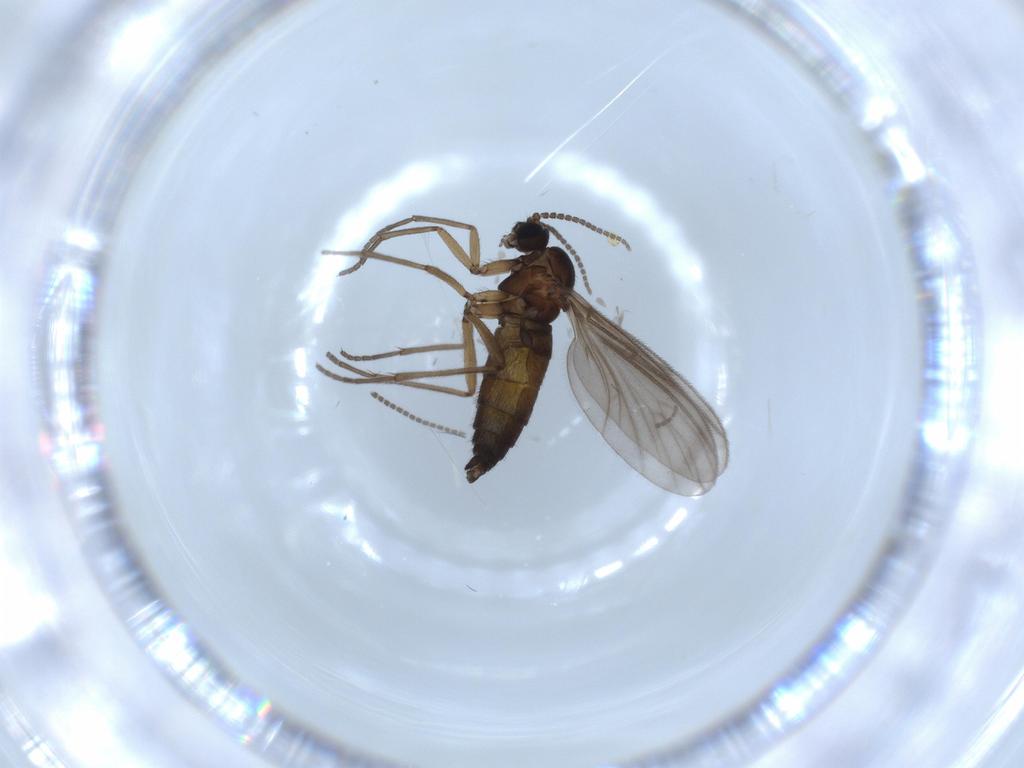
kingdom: Animalia
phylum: Arthropoda
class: Insecta
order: Diptera
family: Sciaridae
